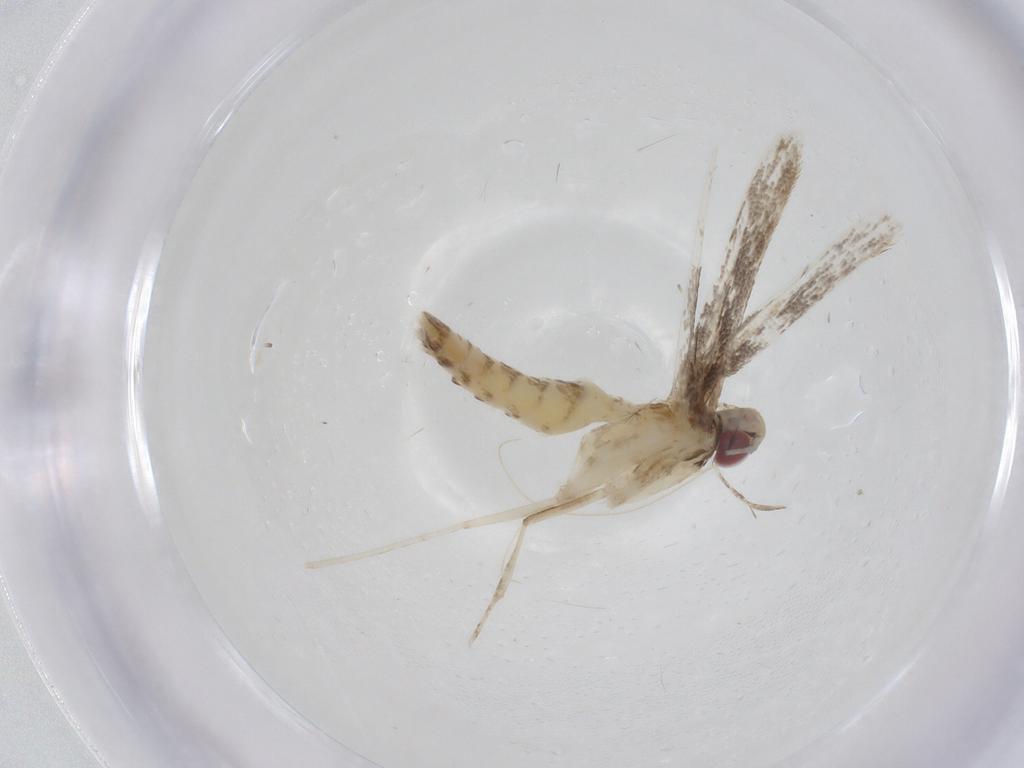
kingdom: Animalia
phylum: Arthropoda
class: Insecta
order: Lepidoptera
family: Gracillariidae
